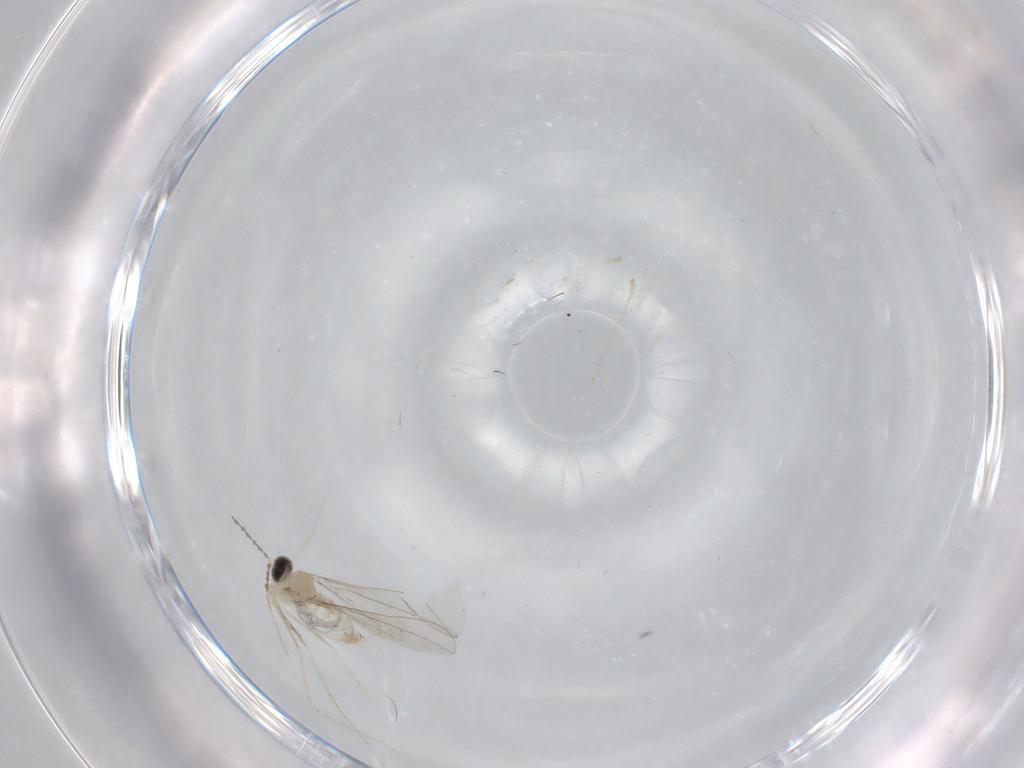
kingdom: Animalia
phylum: Arthropoda
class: Insecta
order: Diptera
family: Cecidomyiidae
